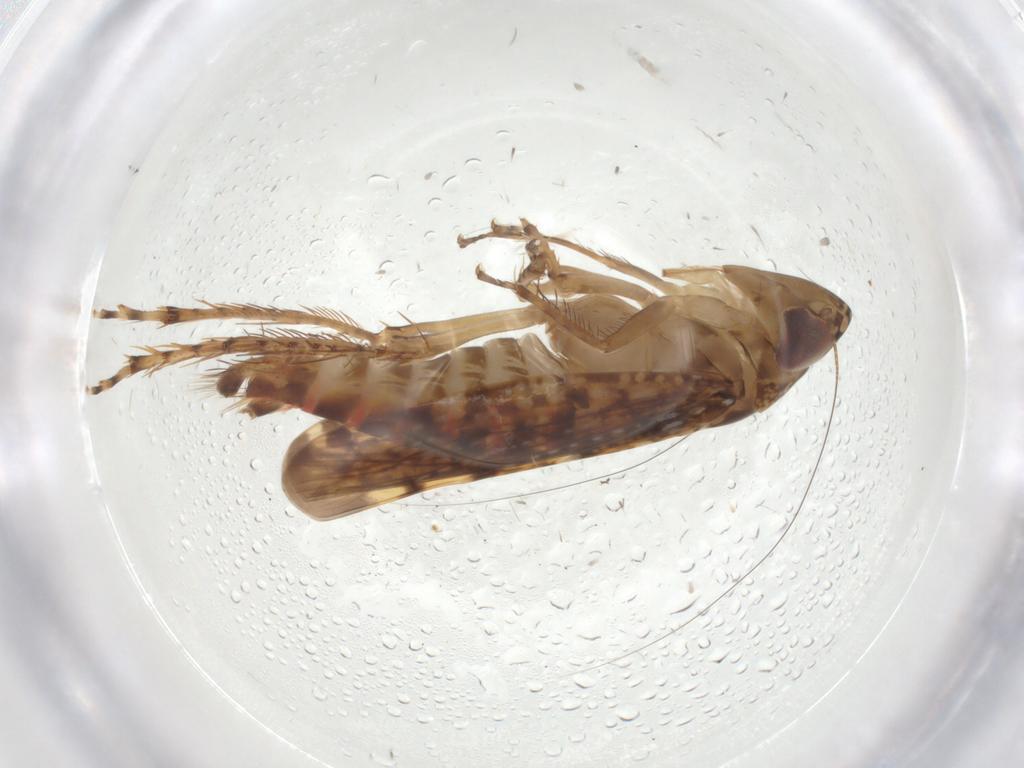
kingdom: Animalia
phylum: Arthropoda
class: Insecta
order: Hemiptera
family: Cicadellidae
